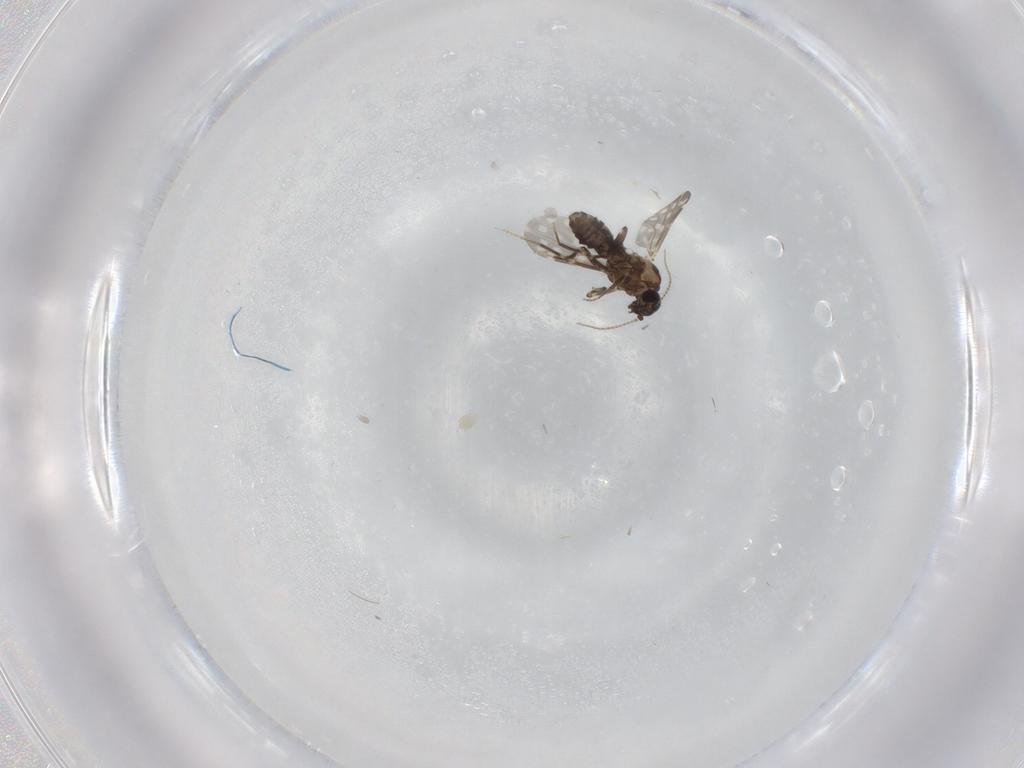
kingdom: Animalia
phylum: Arthropoda
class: Insecta
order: Diptera
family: Ceratopogonidae
